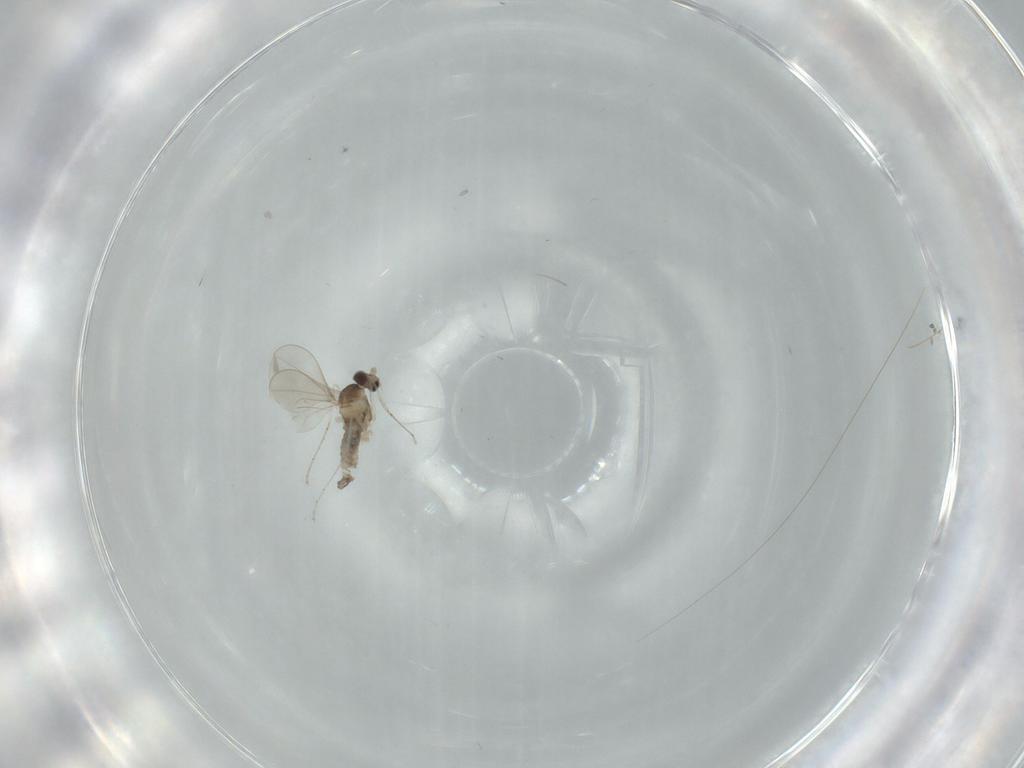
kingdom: Animalia
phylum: Arthropoda
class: Insecta
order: Diptera
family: Cecidomyiidae
